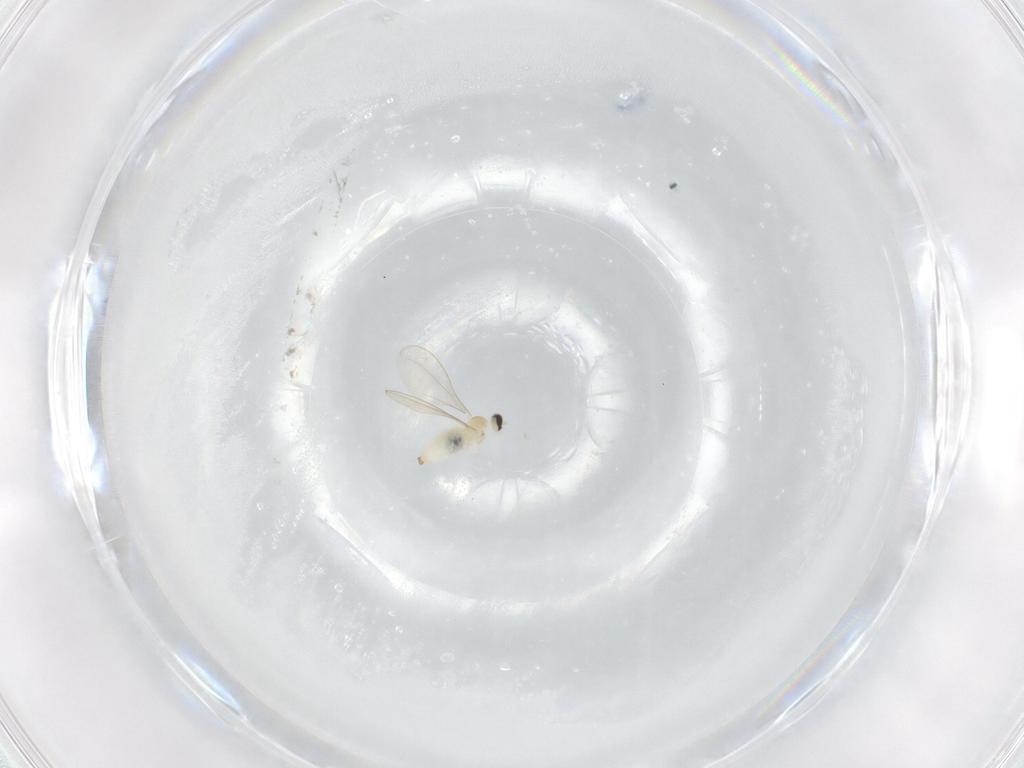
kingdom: Animalia
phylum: Arthropoda
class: Insecta
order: Diptera
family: Cecidomyiidae
